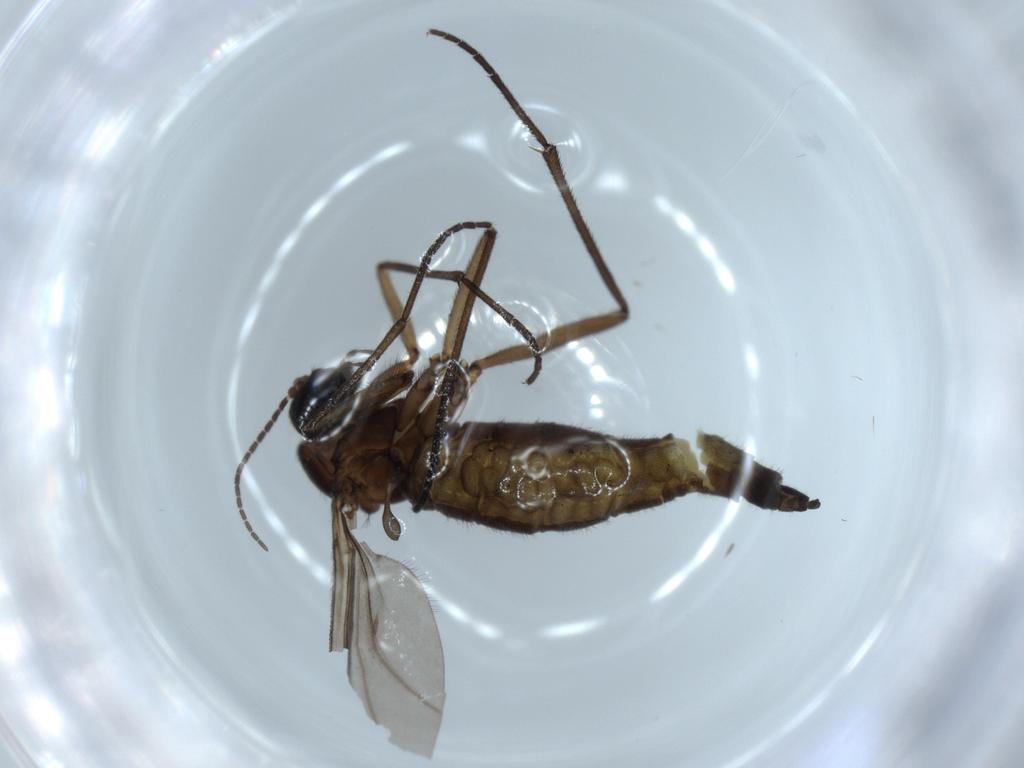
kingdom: Animalia
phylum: Arthropoda
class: Insecta
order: Diptera
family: Sciaridae
